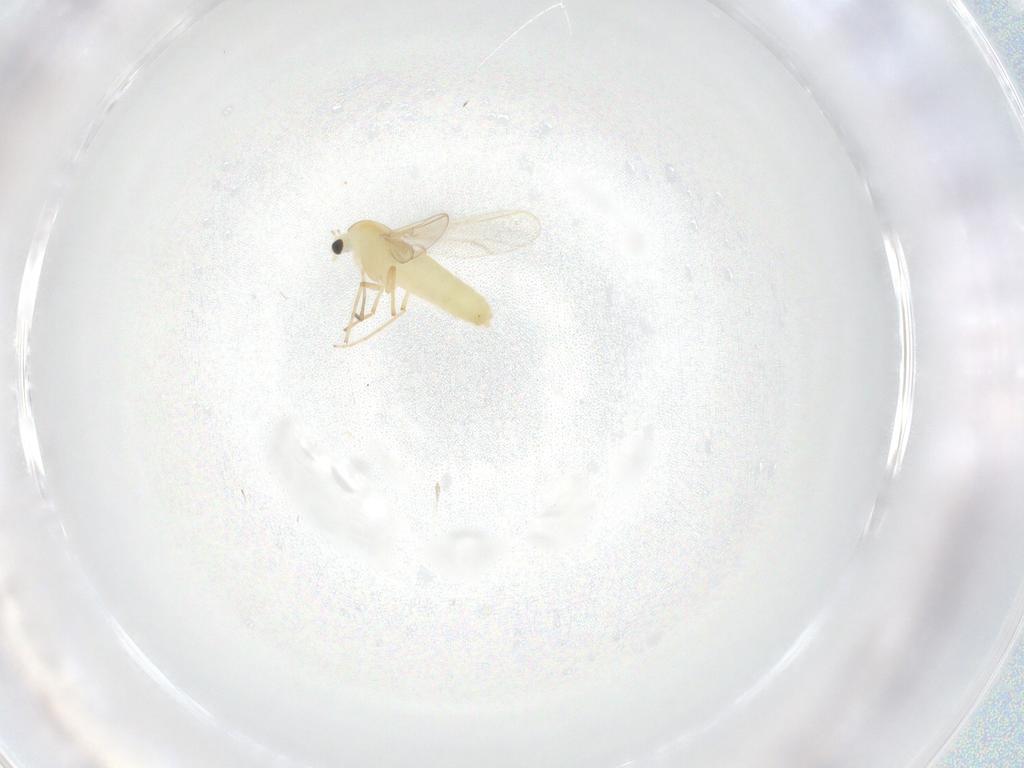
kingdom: Animalia
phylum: Arthropoda
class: Insecta
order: Diptera
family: Chironomidae
